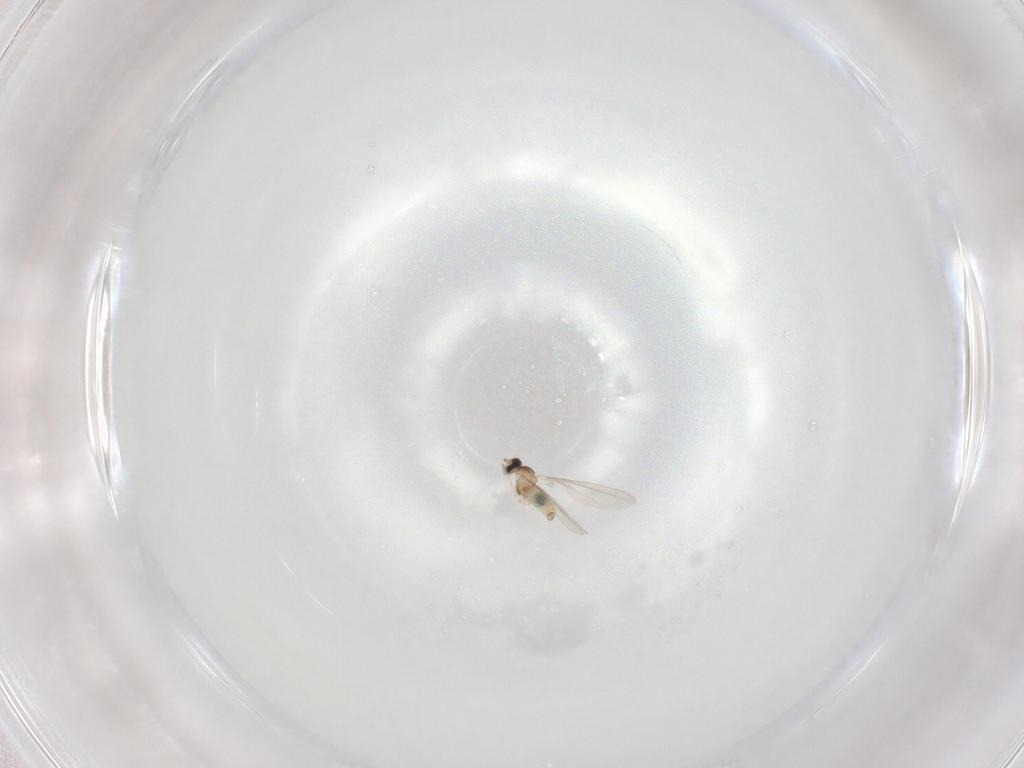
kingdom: Animalia
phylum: Arthropoda
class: Insecta
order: Diptera
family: Cecidomyiidae
